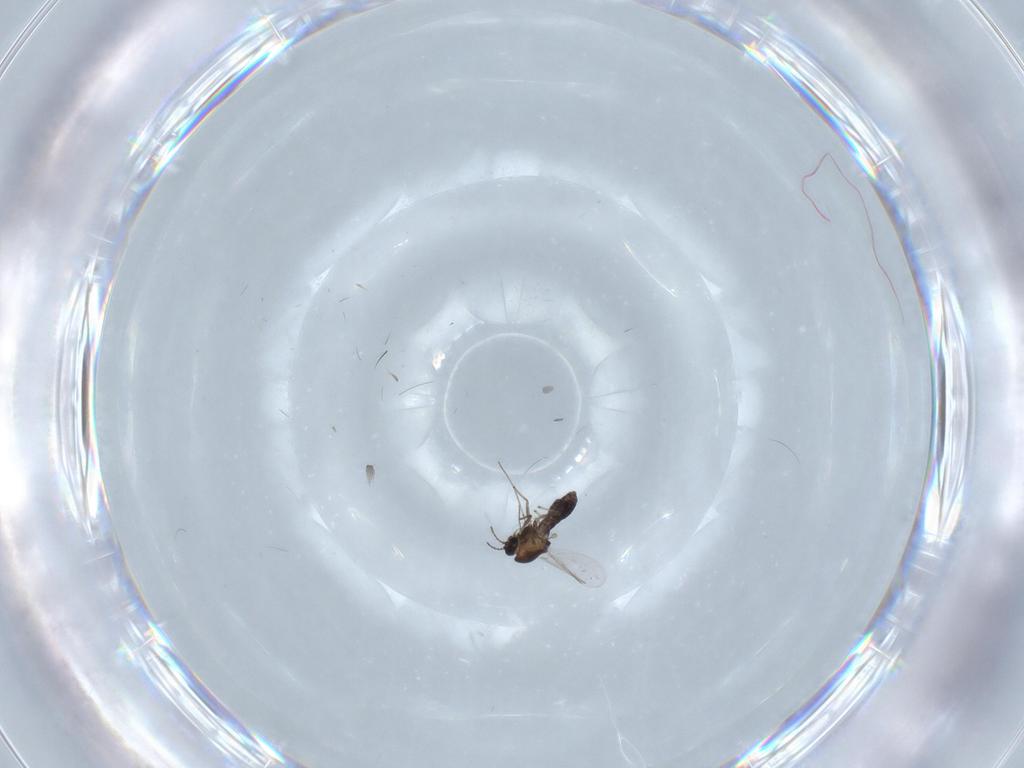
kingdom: Animalia
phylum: Arthropoda
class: Insecta
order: Diptera
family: Chironomidae
